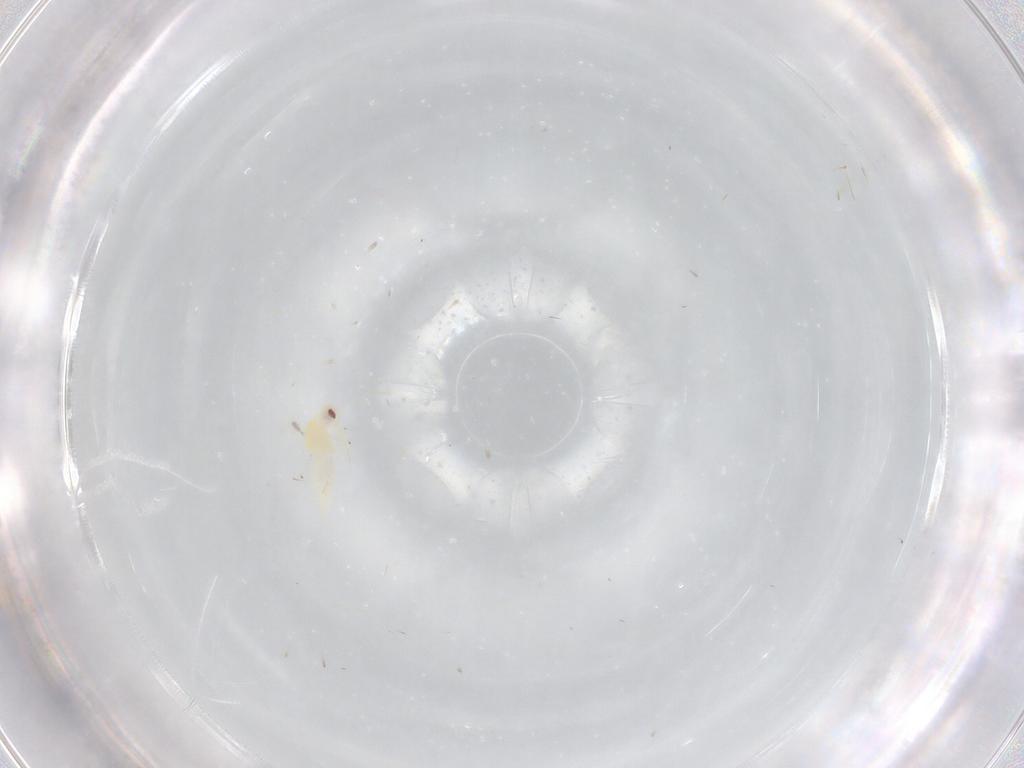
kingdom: Animalia
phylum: Arthropoda
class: Insecta
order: Hemiptera
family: Aleyrodidae
